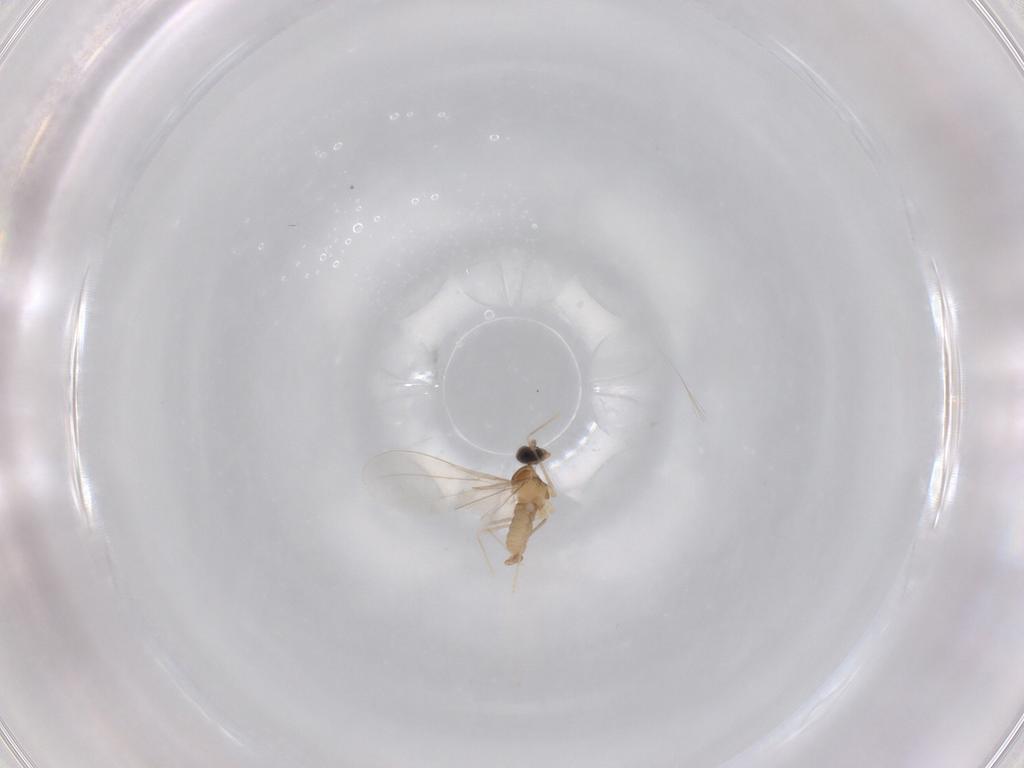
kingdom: Animalia
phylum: Arthropoda
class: Insecta
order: Diptera
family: Cecidomyiidae
